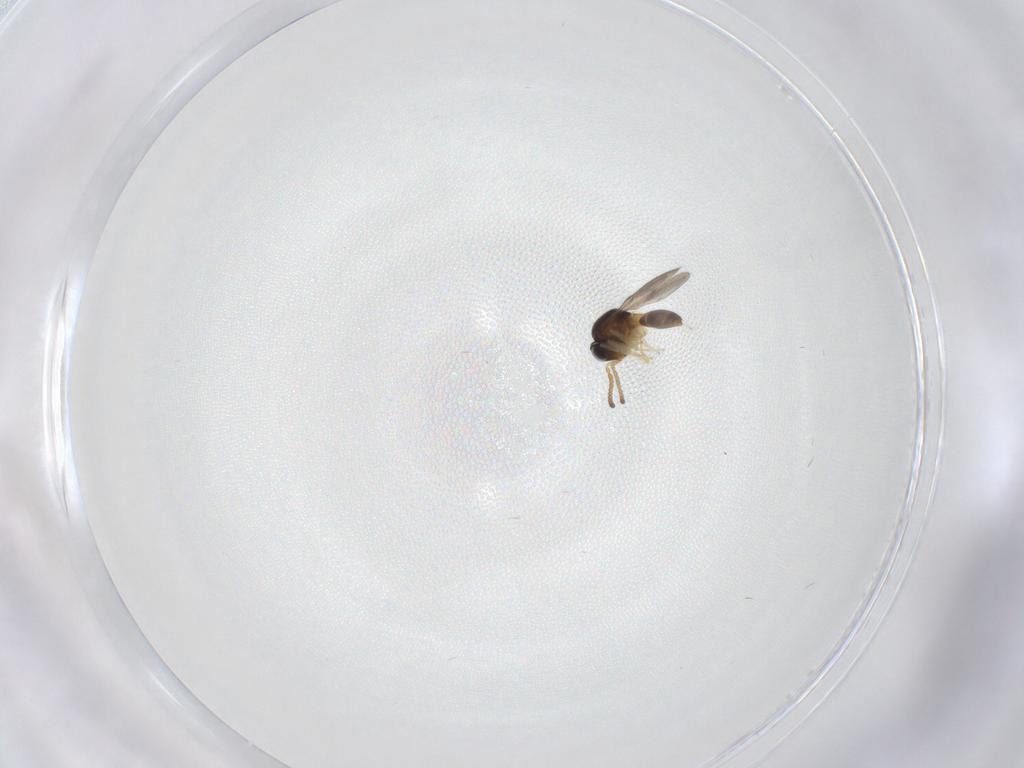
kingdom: Animalia
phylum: Arthropoda
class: Insecta
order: Hymenoptera
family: Scelionidae
